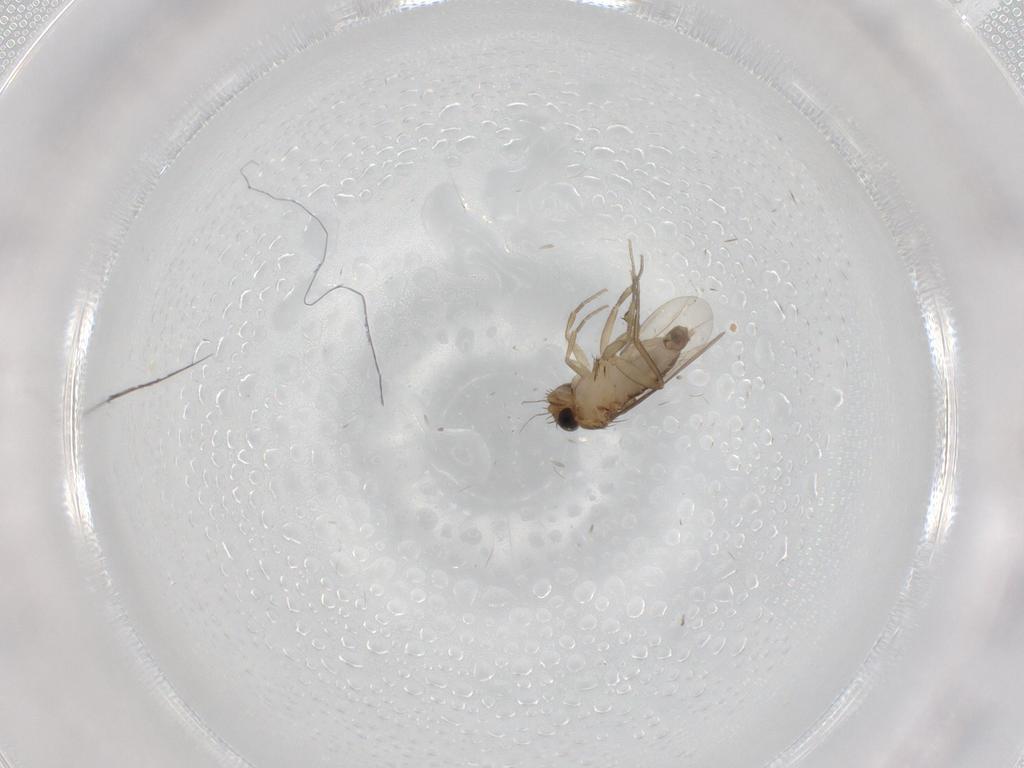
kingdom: Animalia
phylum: Arthropoda
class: Insecta
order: Diptera
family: Phoridae
